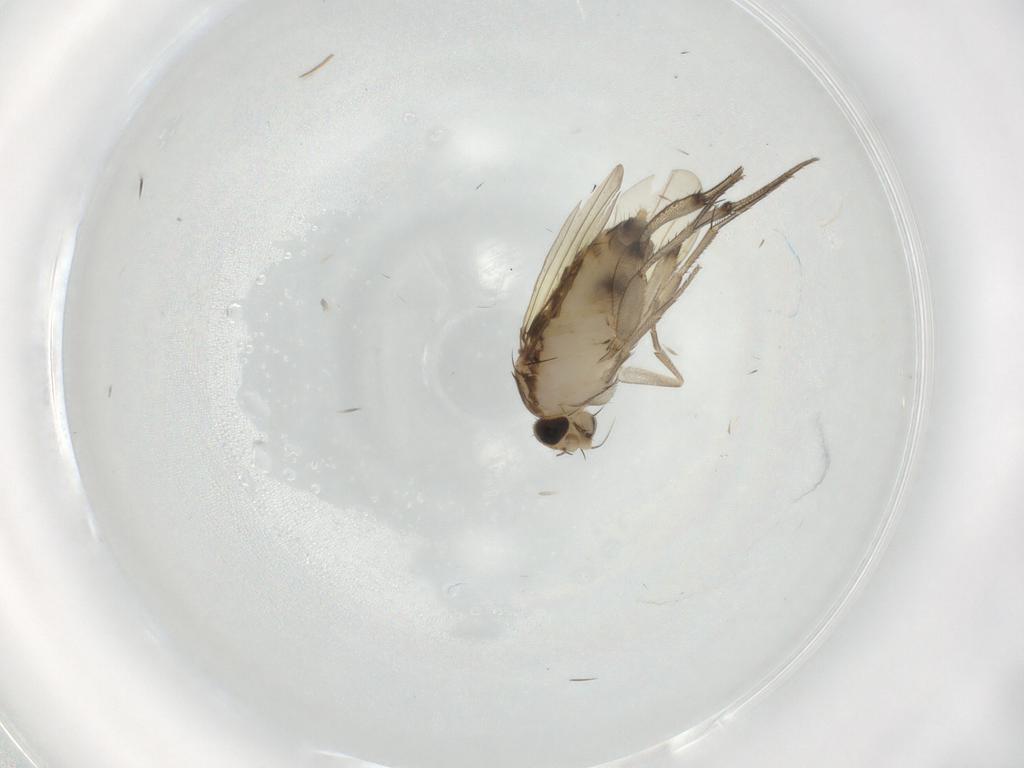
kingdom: Animalia
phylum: Arthropoda
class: Insecta
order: Diptera
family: Phoridae
